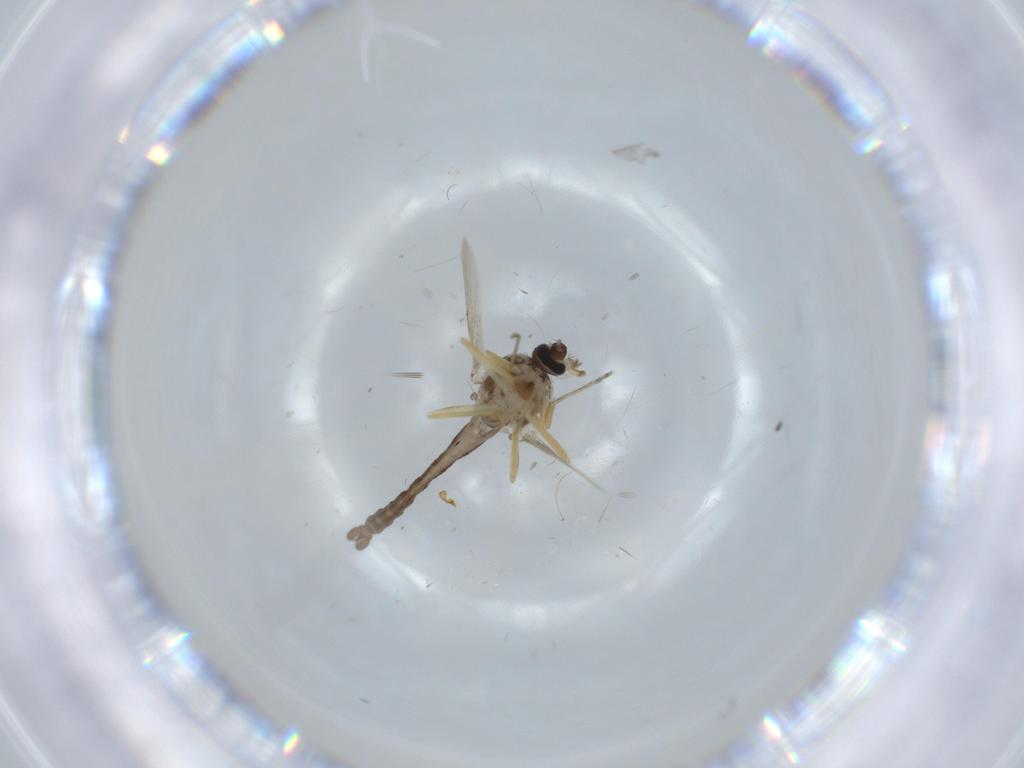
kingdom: Animalia
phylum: Arthropoda
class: Insecta
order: Diptera
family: Ceratopogonidae
